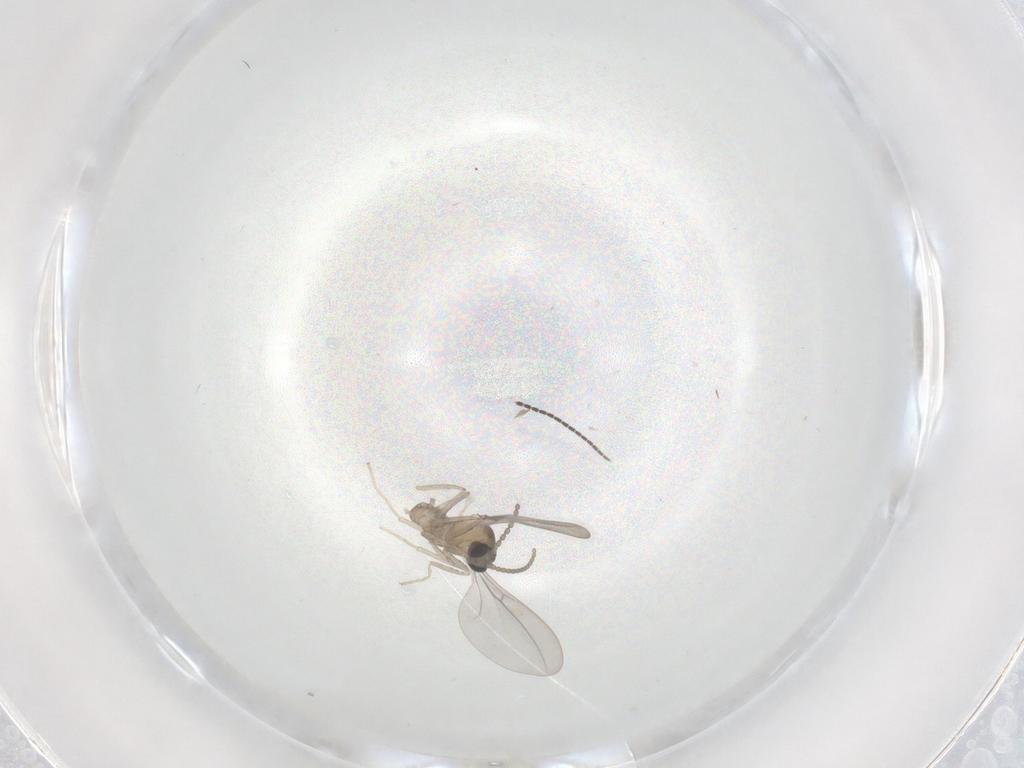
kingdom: Animalia
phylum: Arthropoda
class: Insecta
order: Diptera
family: Cecidomyiidae
